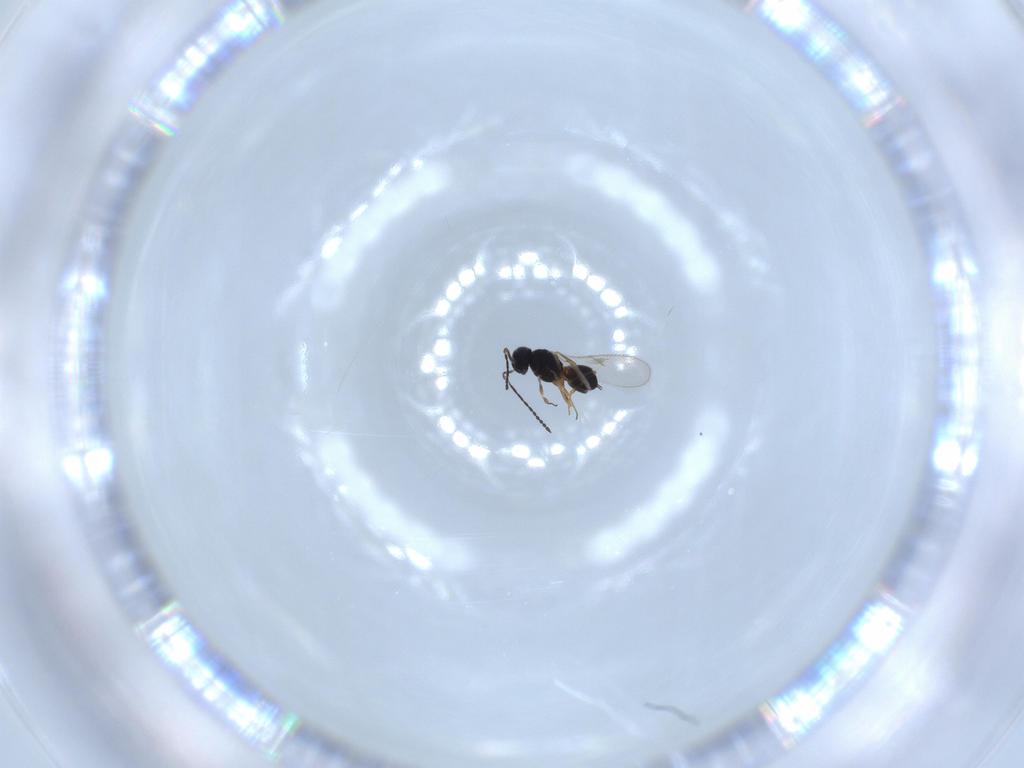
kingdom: Animalia
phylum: Arthropoda
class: Insecta
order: Hymenoptera
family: Scelionidae
